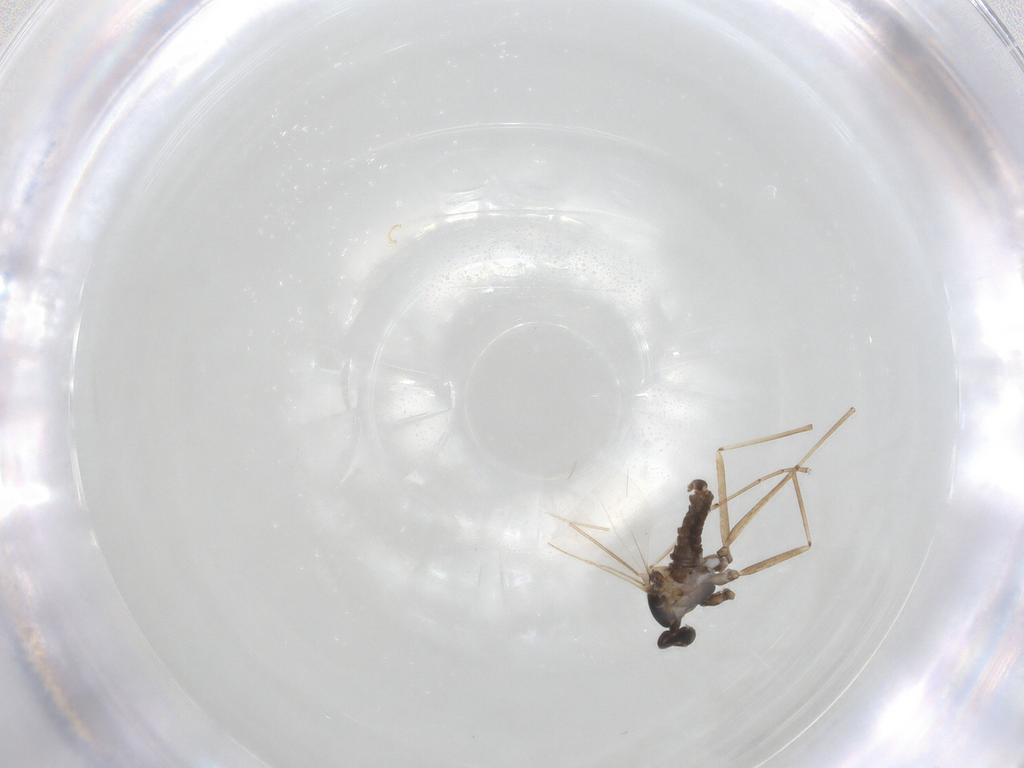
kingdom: Animalia
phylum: Arthropoda
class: Insecta
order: Diptera
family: Cecidomyiidae
